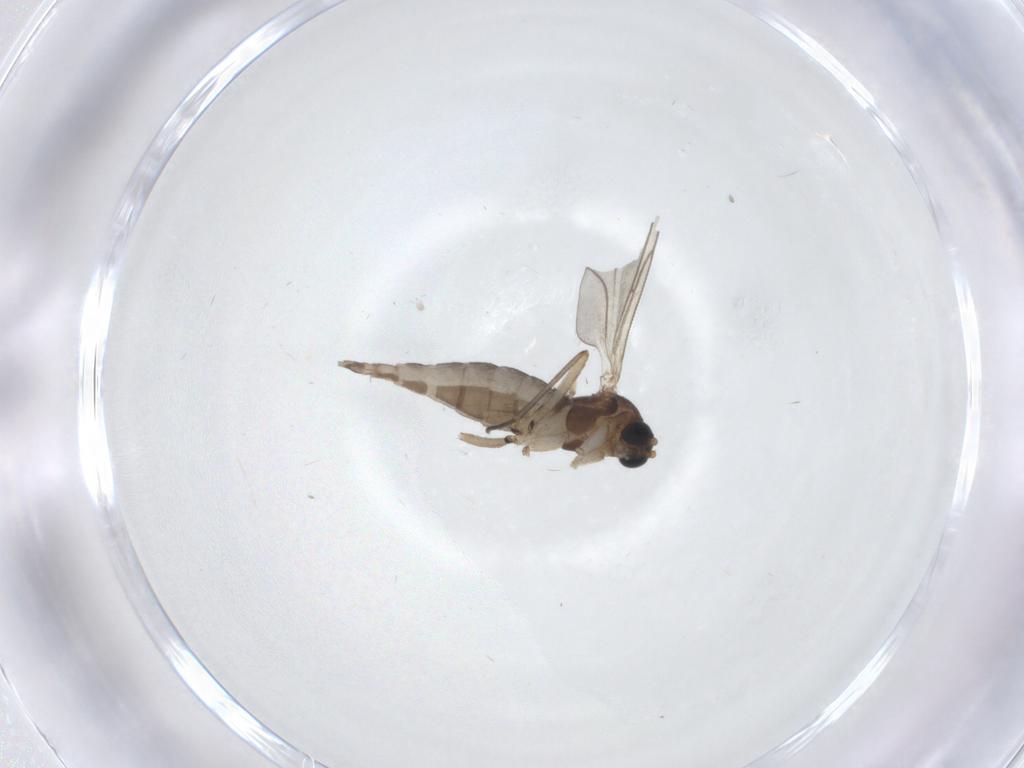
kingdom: Animalia
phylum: Arthropoda
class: Insecta
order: Diptera
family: Sciaridae
